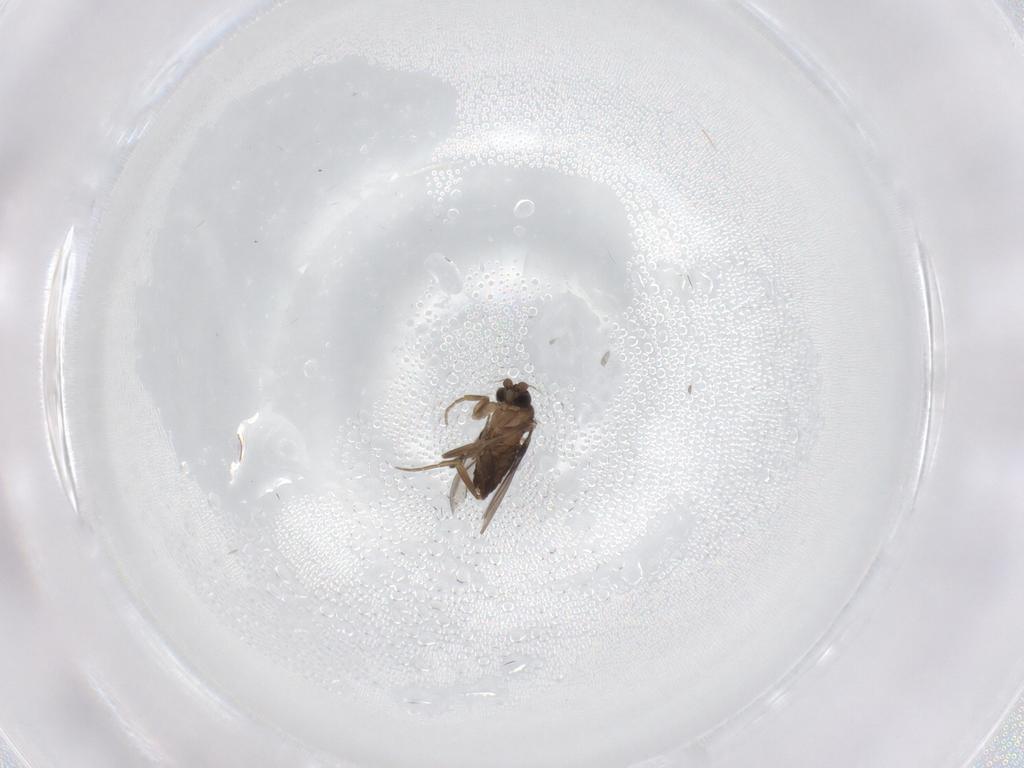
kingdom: Animalia
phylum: Arthropoda
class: Insecta
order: Diptera
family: Phoridae
